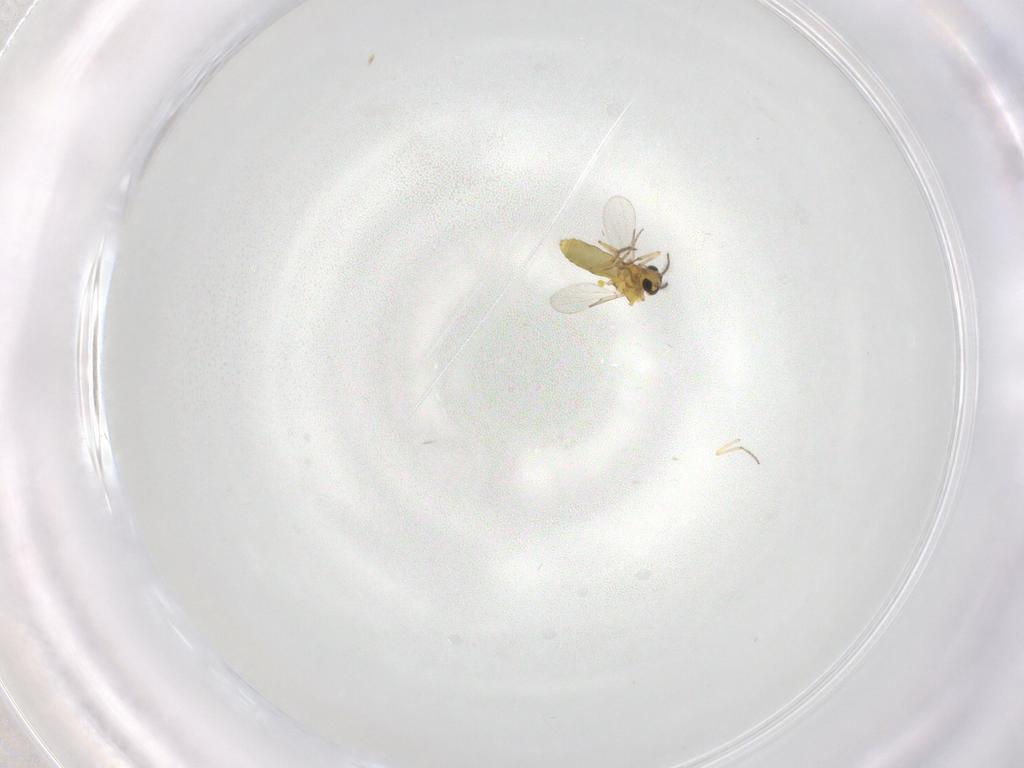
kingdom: Animalia
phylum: Arthropoda
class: Insecta
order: Diptera
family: Ceratopogonidae
